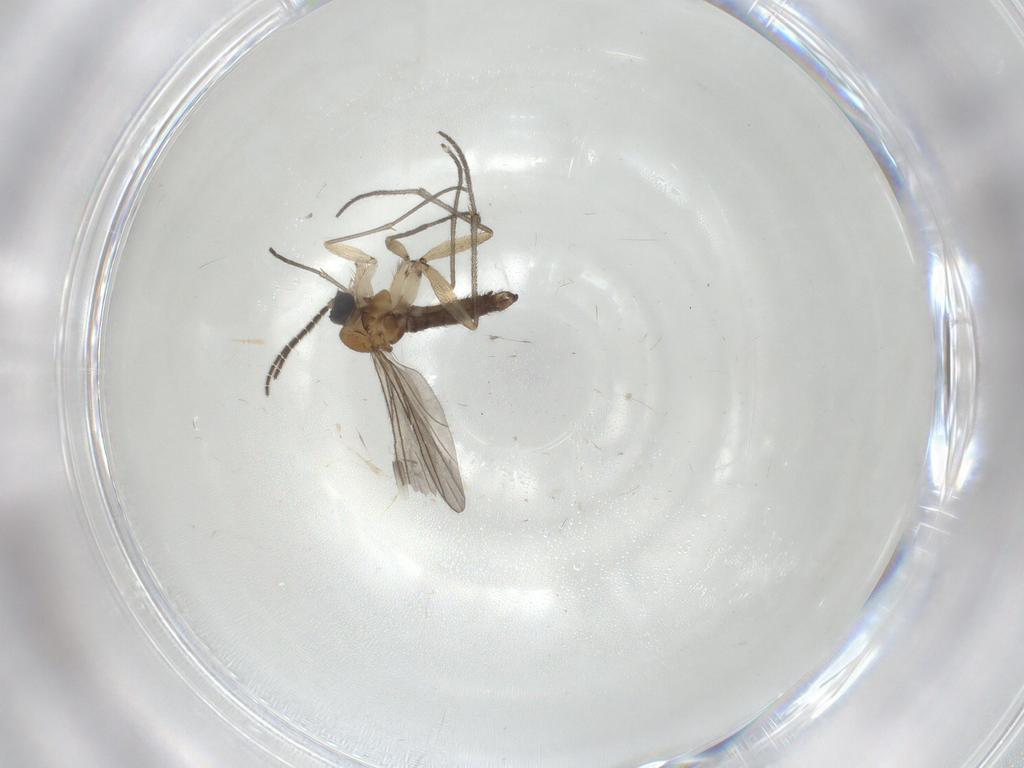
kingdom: Animalia
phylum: Arthropoda
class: Insecta
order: Diptera
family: Sciaridae
